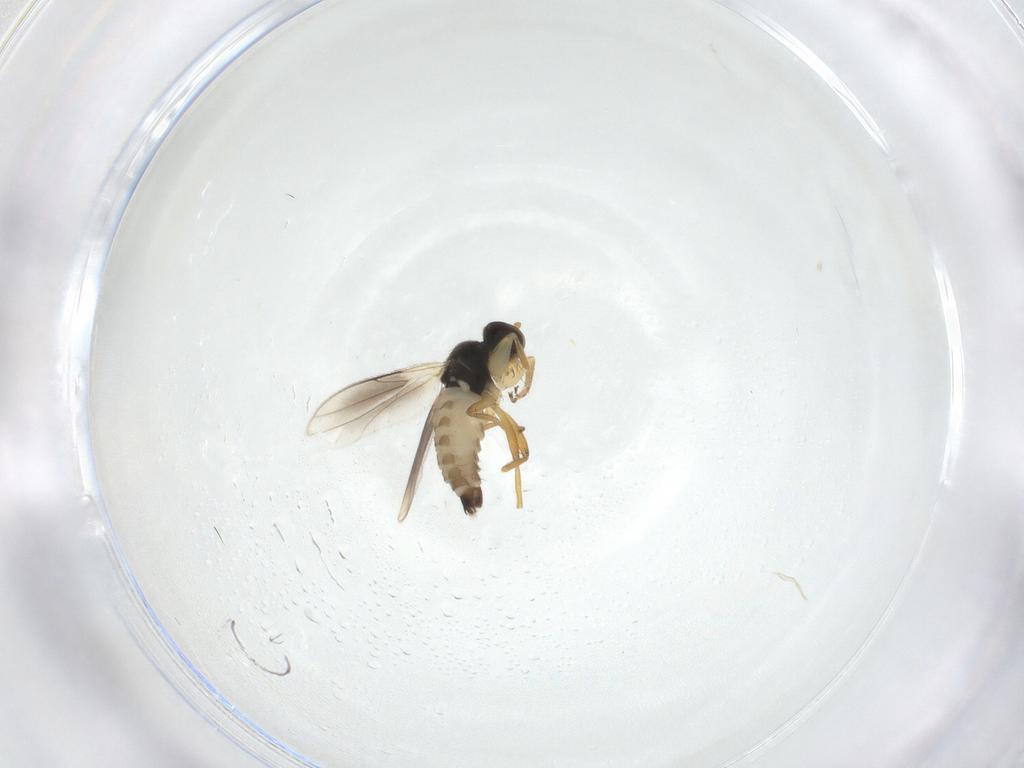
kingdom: Animalia
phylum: Arthropoda
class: Insecta
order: Diptera
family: Hybotidae
